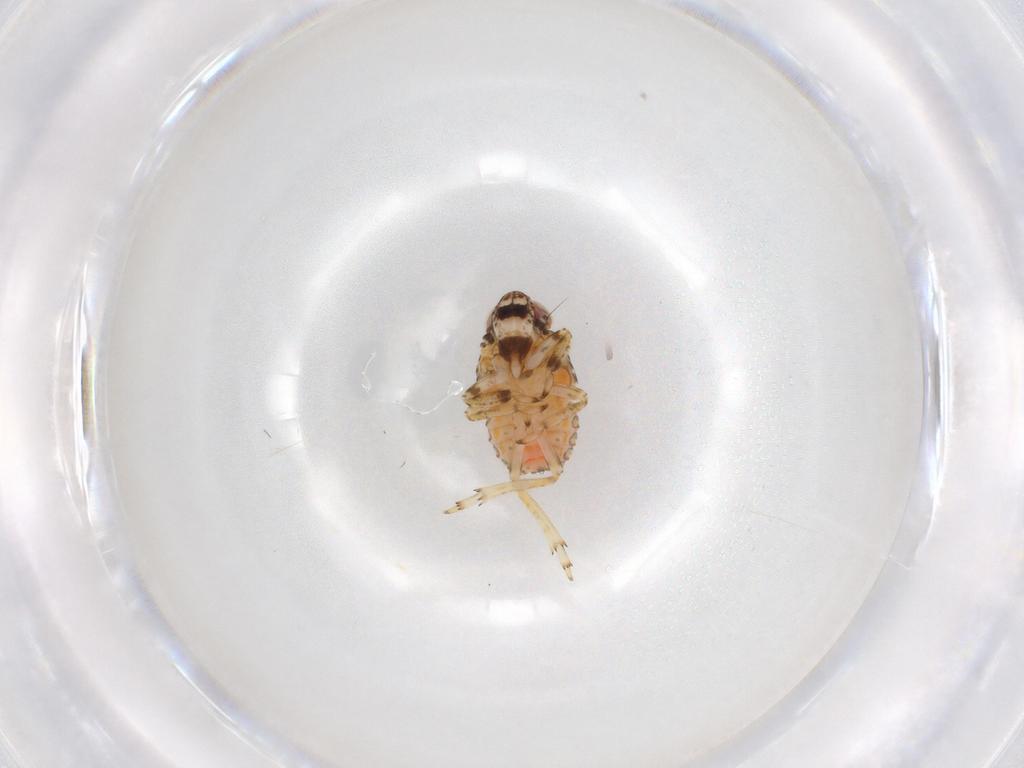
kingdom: Animalia
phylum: Arthropoda
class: Insecta
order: Hemiptera
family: Issidae
